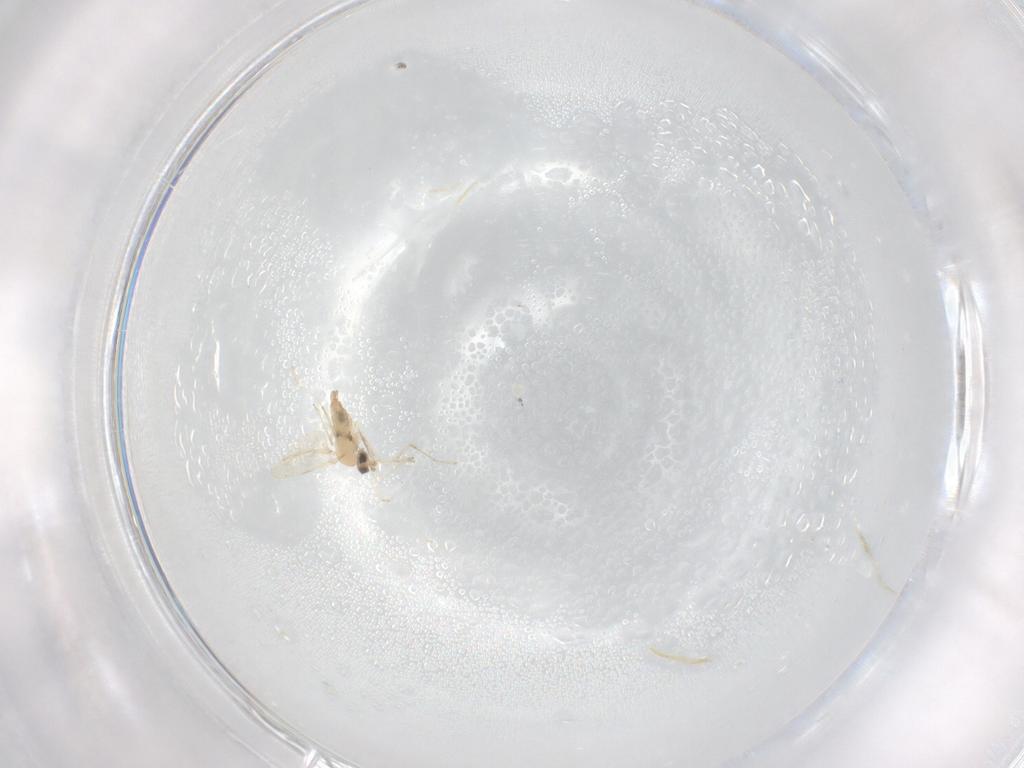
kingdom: Animalia
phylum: Arthropoda
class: Insecta
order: Diptera
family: Cecidomyiidae
